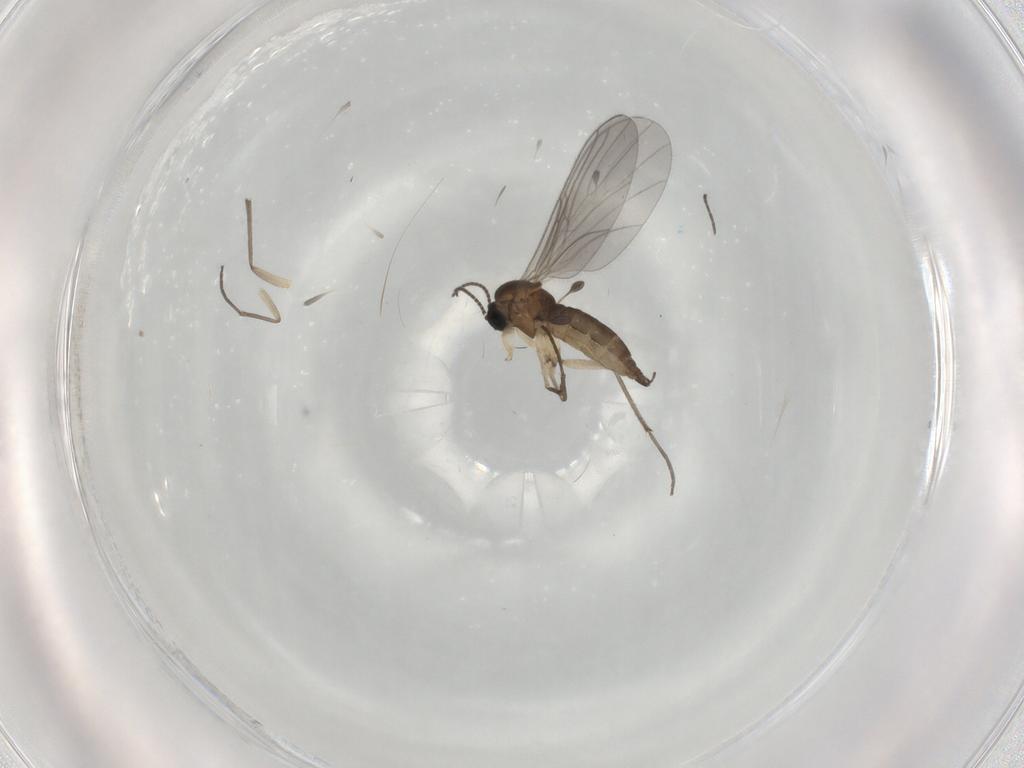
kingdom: Animalia
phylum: Arthropoda
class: Insecta
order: Diptera
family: Sciaridae
